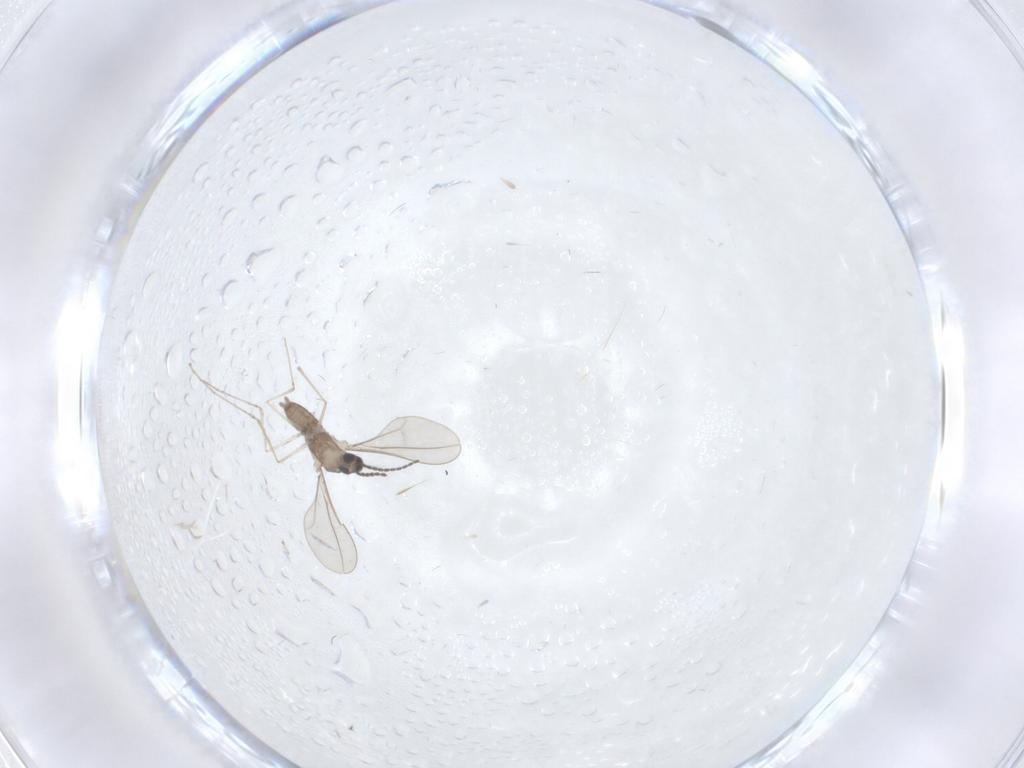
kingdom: Animalia
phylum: Arthropoda
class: Insecta
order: Diptera
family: Cecidomyiidae
